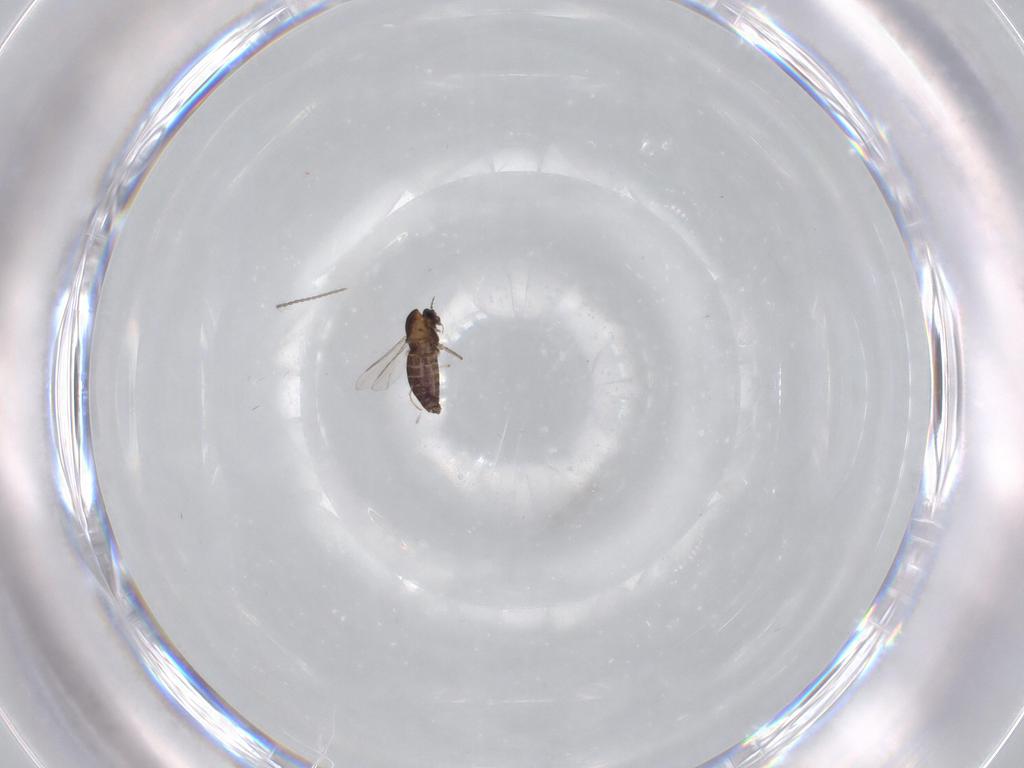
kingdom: Animalia
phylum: Arthropoda
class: Insecta
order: Diptera
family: Chironomidae
